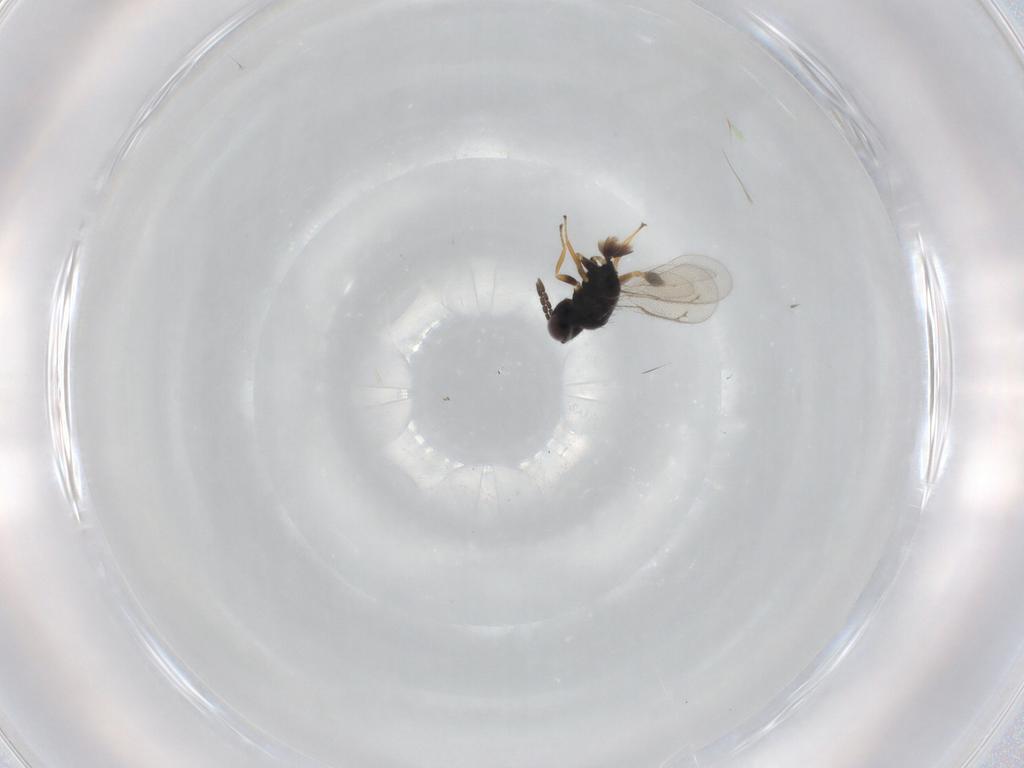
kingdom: Animalia
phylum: Arthropoda
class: Insecta
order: Hymenoptera
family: Eulophidae
